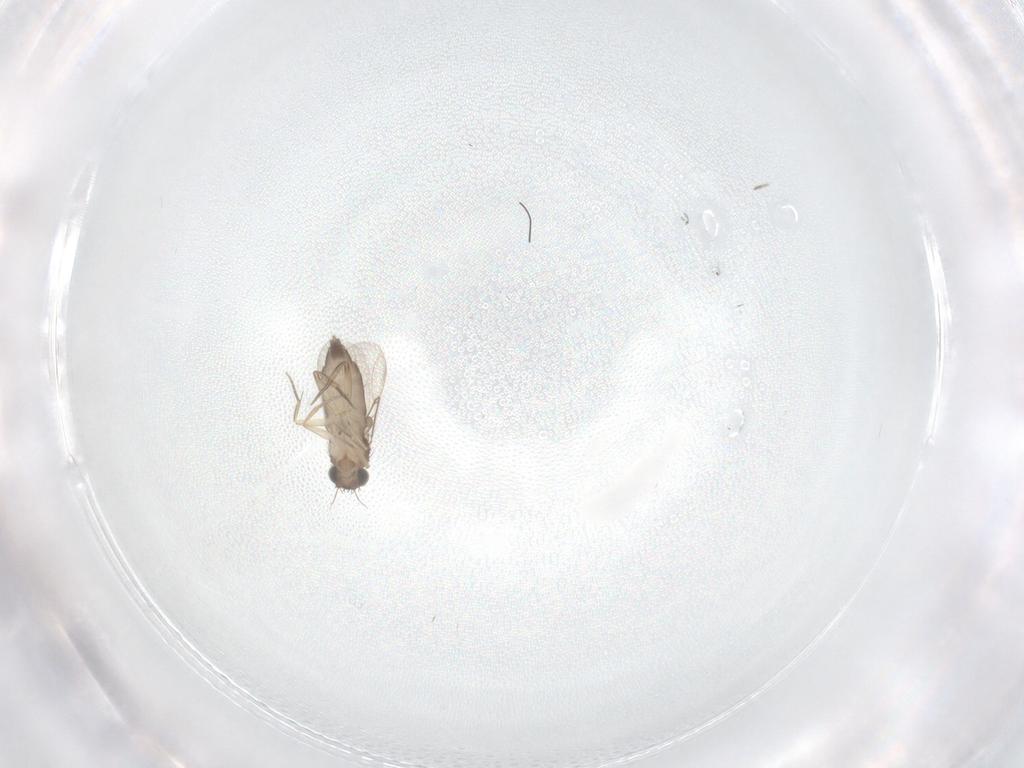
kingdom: Animalia
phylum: Arthropoda
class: Insecta
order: Diptera
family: Phoridae
